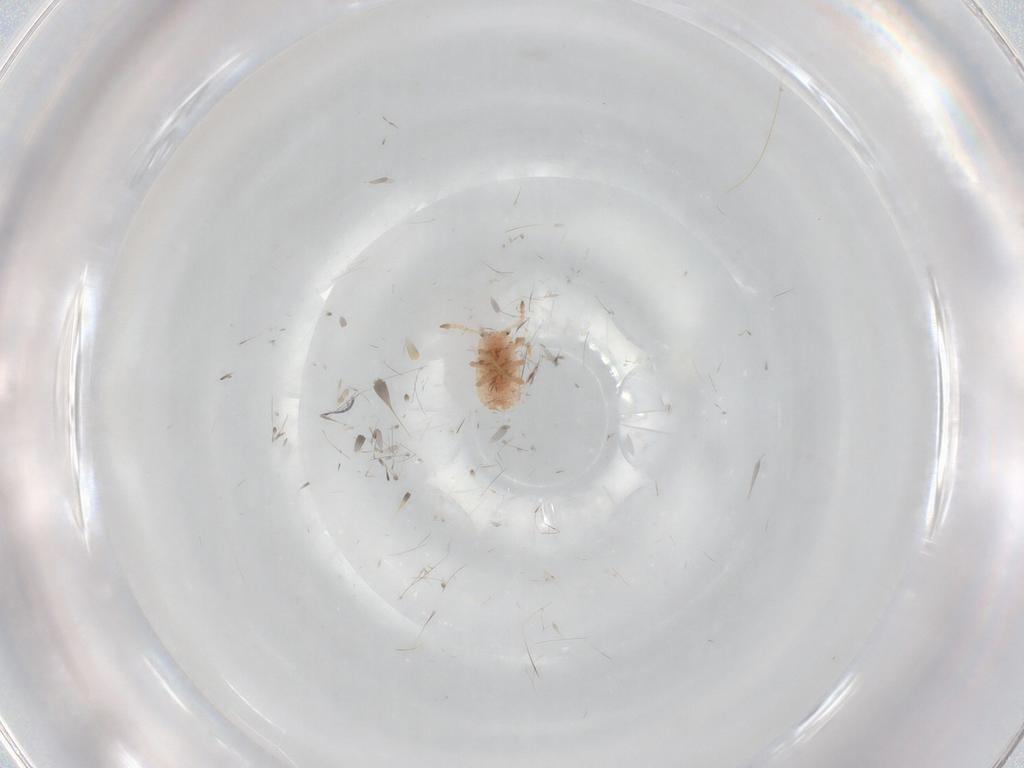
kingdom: Animalia
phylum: Arthropoda
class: Insecta
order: Hemiptera
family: Coccoidea_incertae_sedis
